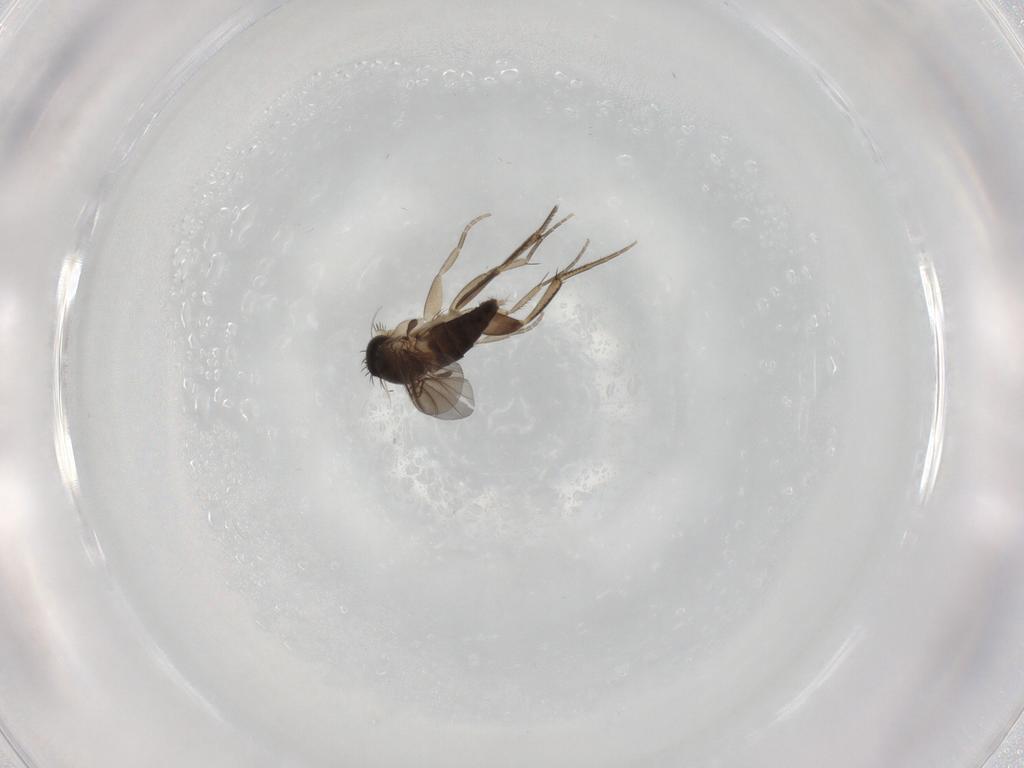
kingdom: Animalia
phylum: Arthropoda
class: Insecta
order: Diptera
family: Phoridae
